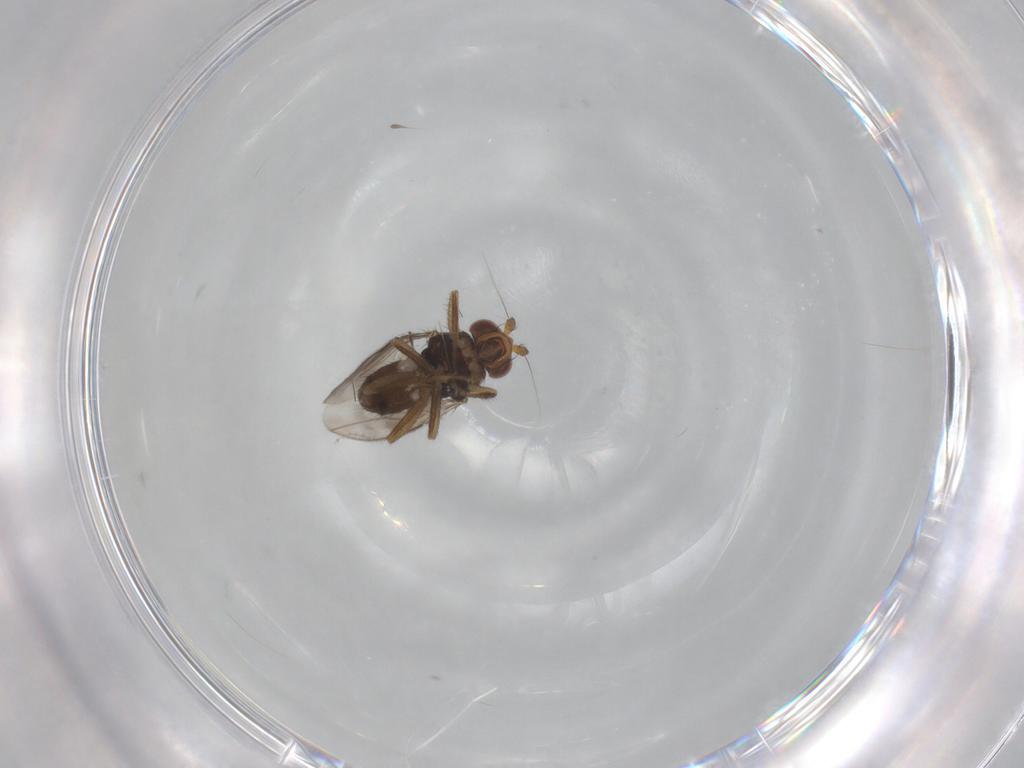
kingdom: Animalia
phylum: Arthropoda
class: Insecta
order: Diptera
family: Sphaeroceridae
